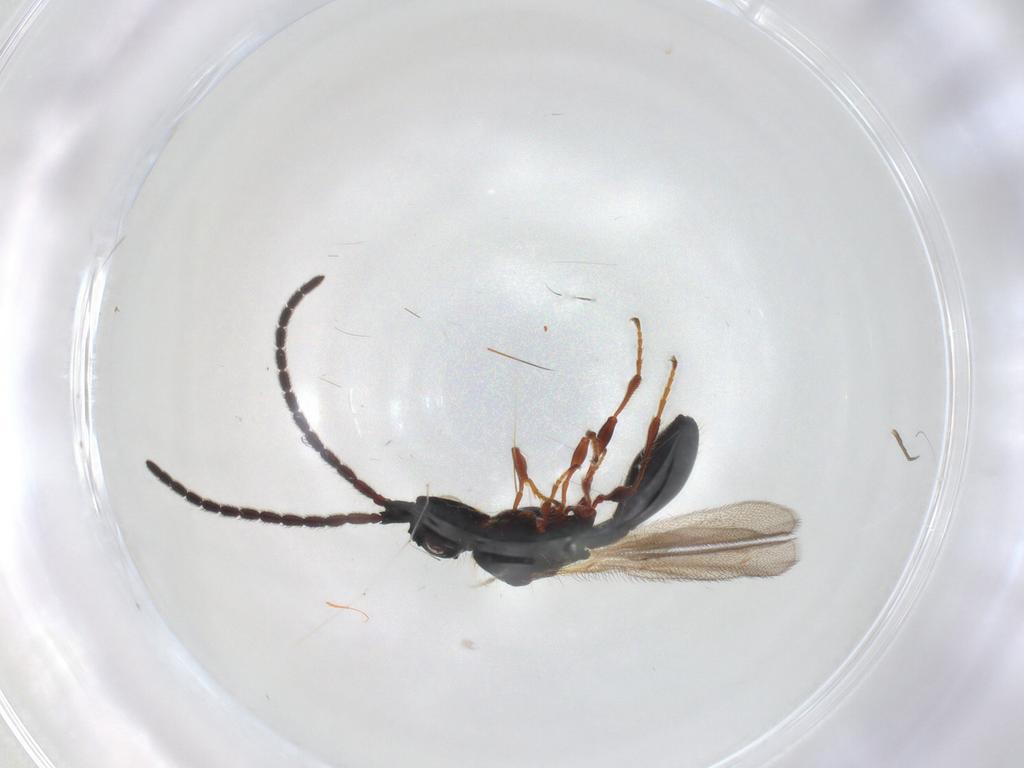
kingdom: Animalia
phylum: Arthropoda
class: Insecta
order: Hymenoptera
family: Diapriidae
